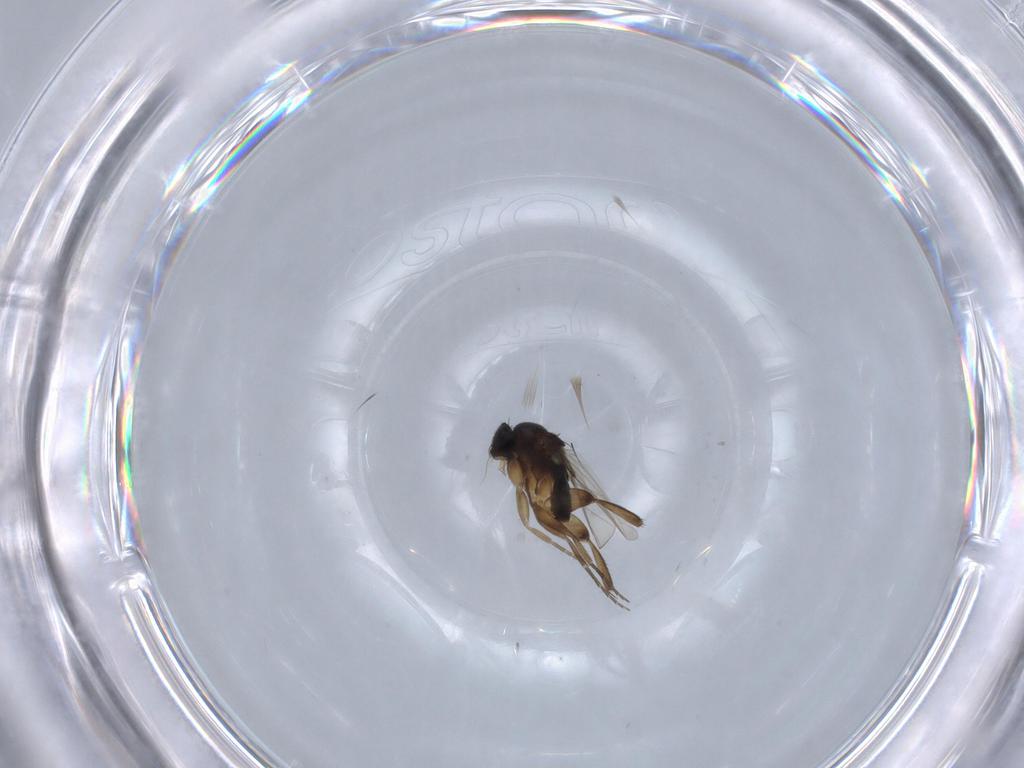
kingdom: Animalia
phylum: Arthropoda
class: Insecta
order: Diptera
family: Phoridae
